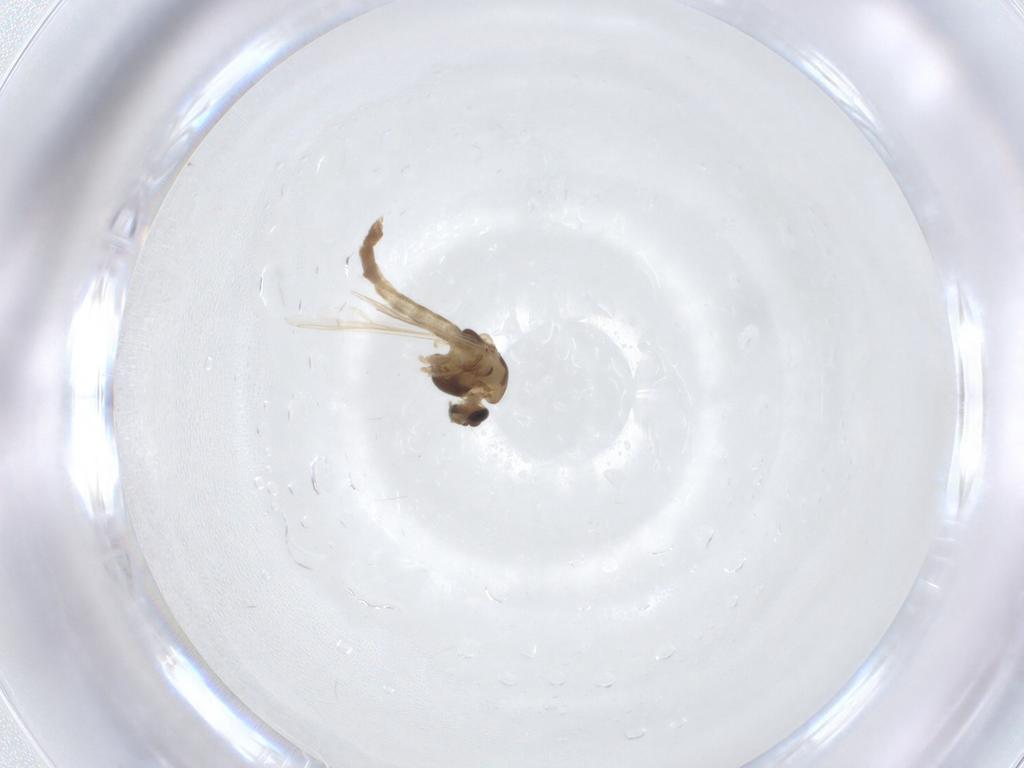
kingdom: Animalia
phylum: Arthropoda
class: Insecta
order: Diptera
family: Chironomidae
